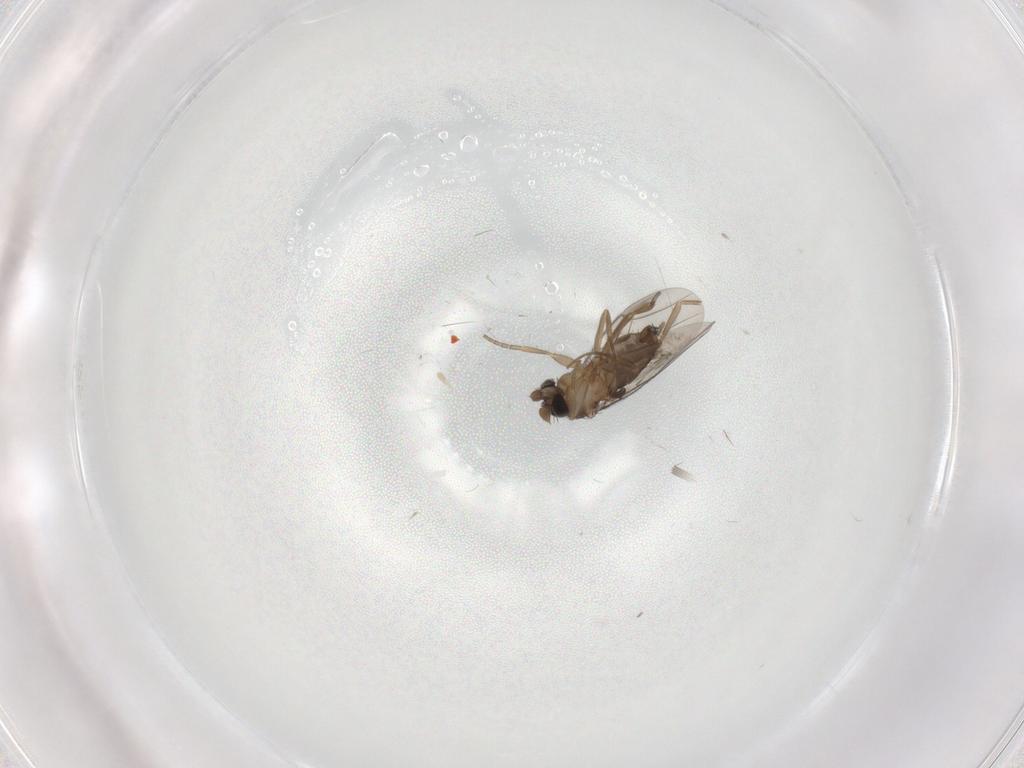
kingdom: Animalia
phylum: Arthropoda
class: Insecta
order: Diptera
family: Phoridae
